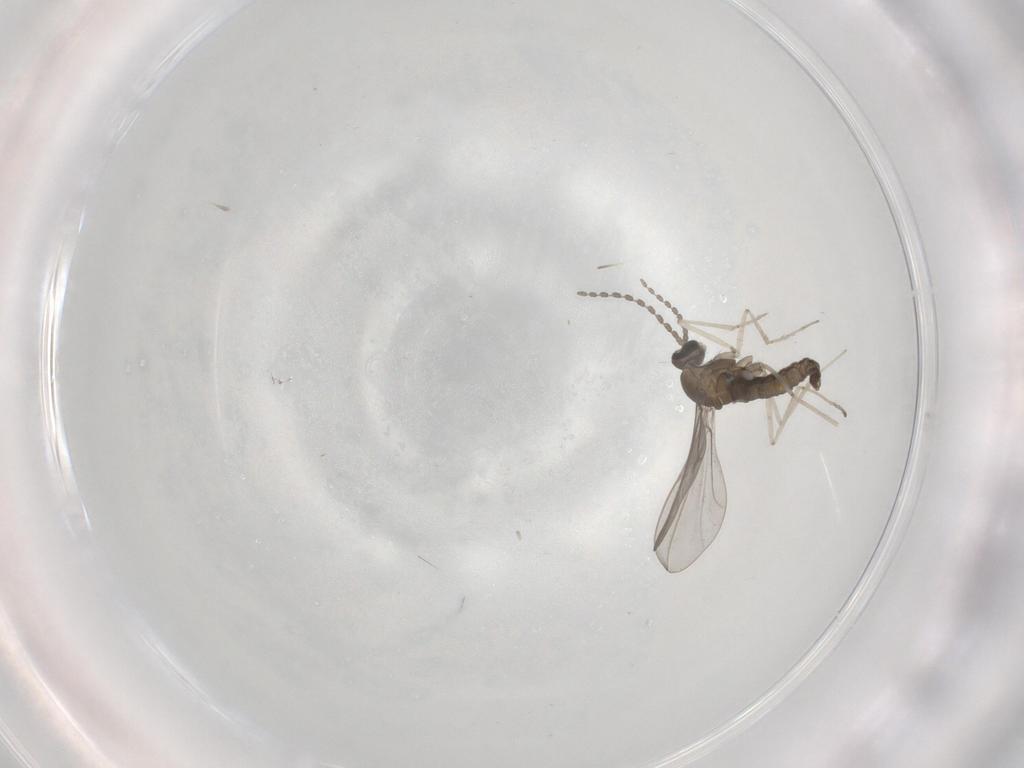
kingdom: Animalia
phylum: Arthropoda
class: Insecta
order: Diptera
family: Cecidomyiidae
